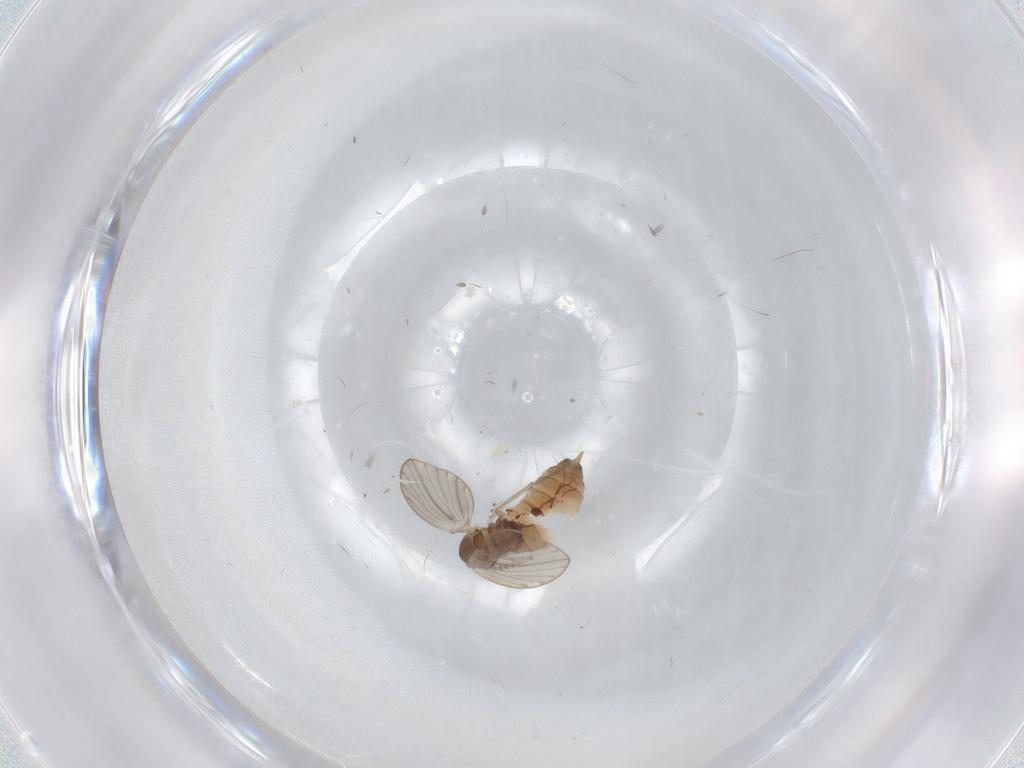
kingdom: Animalia
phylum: Arthropoda
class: Insecta
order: Diptera
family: Psychodidae
